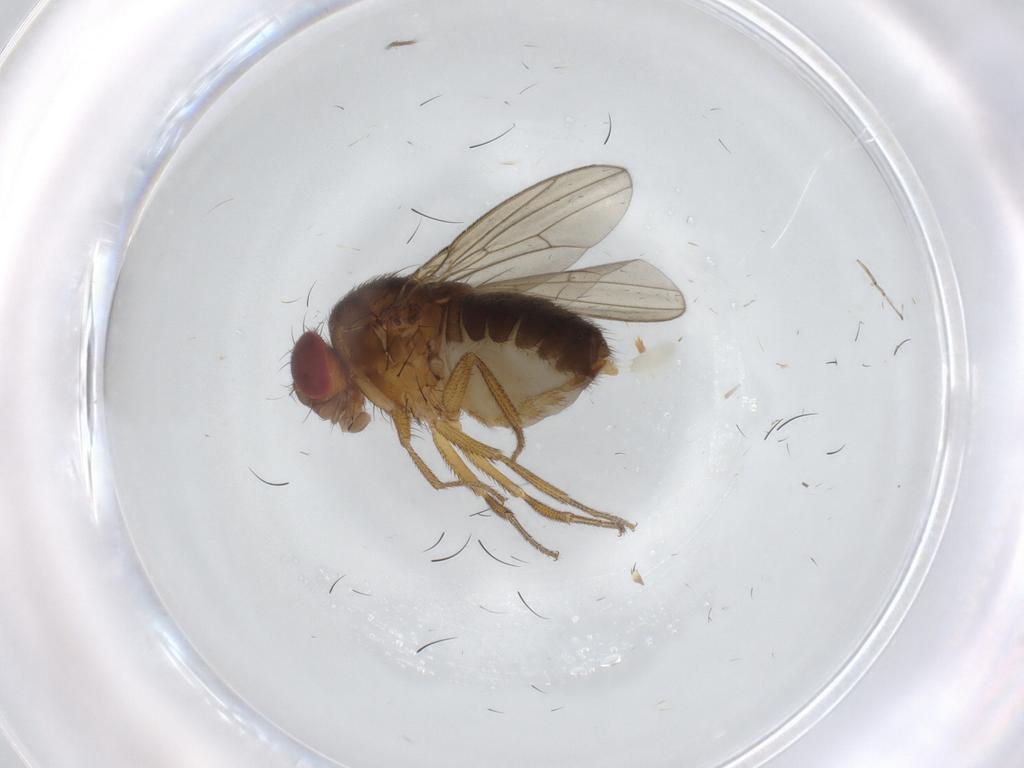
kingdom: Animalia
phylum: Arthropoda
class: Insecta
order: Diptera
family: Drosophilidae
